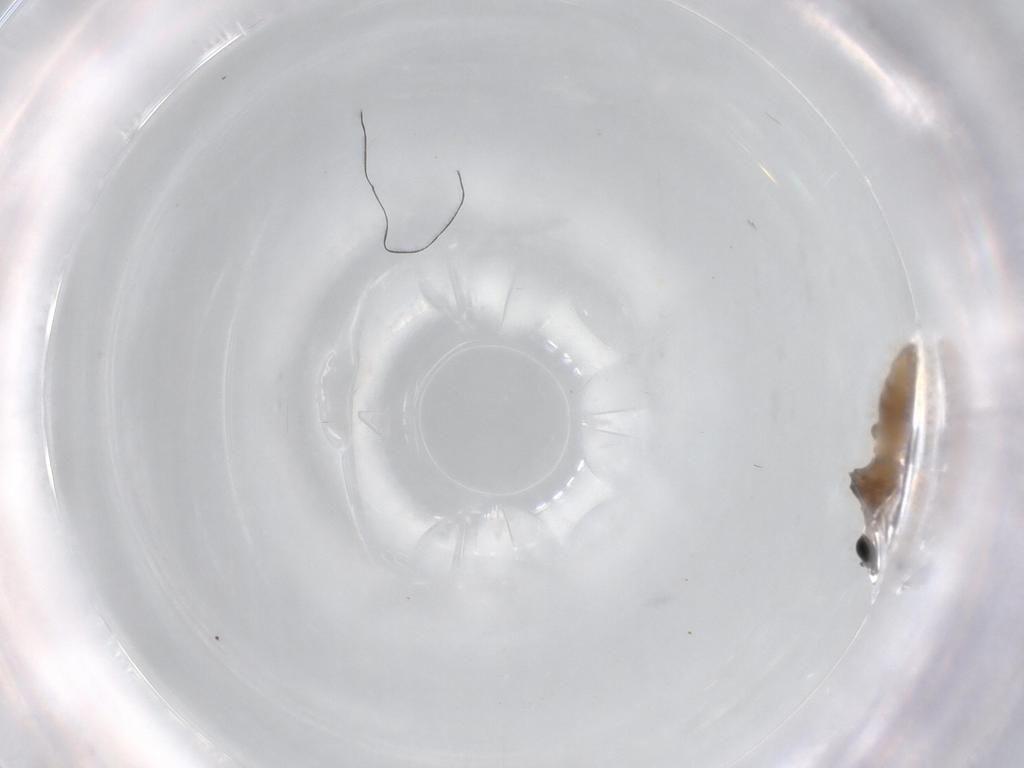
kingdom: Animalia
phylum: Arthropoda
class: Insecta
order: Diptera
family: Cecidomyiidae
